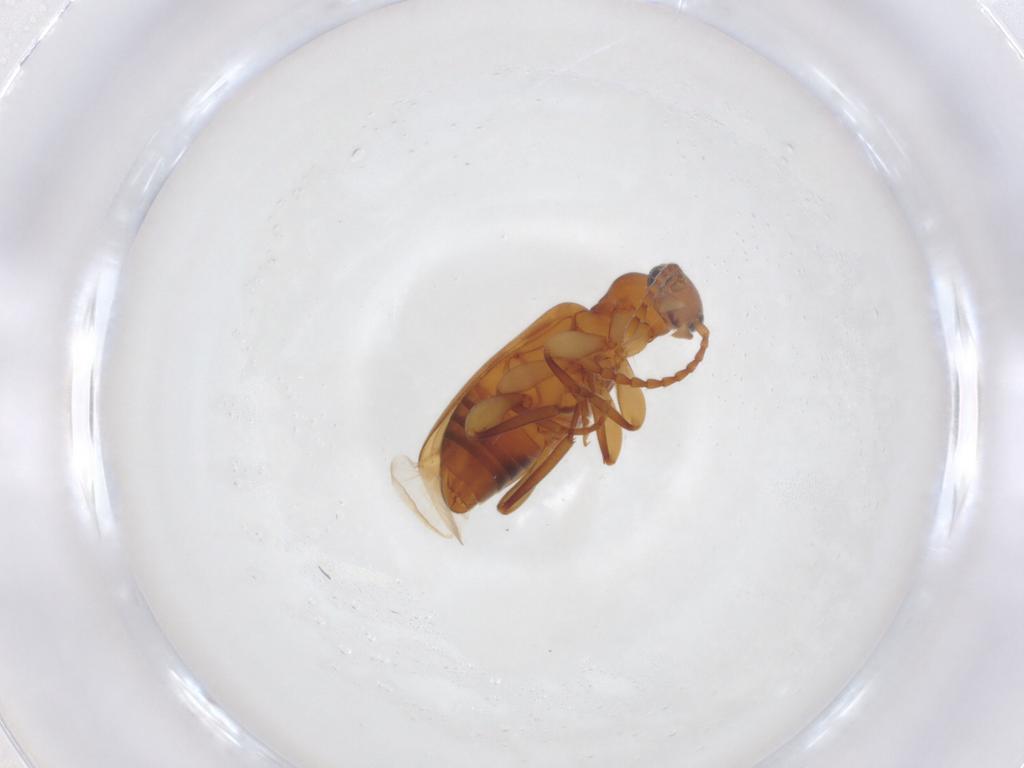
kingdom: Animalia
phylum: Arthropoda
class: Insecta
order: Coleoptera
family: Anthicidae
